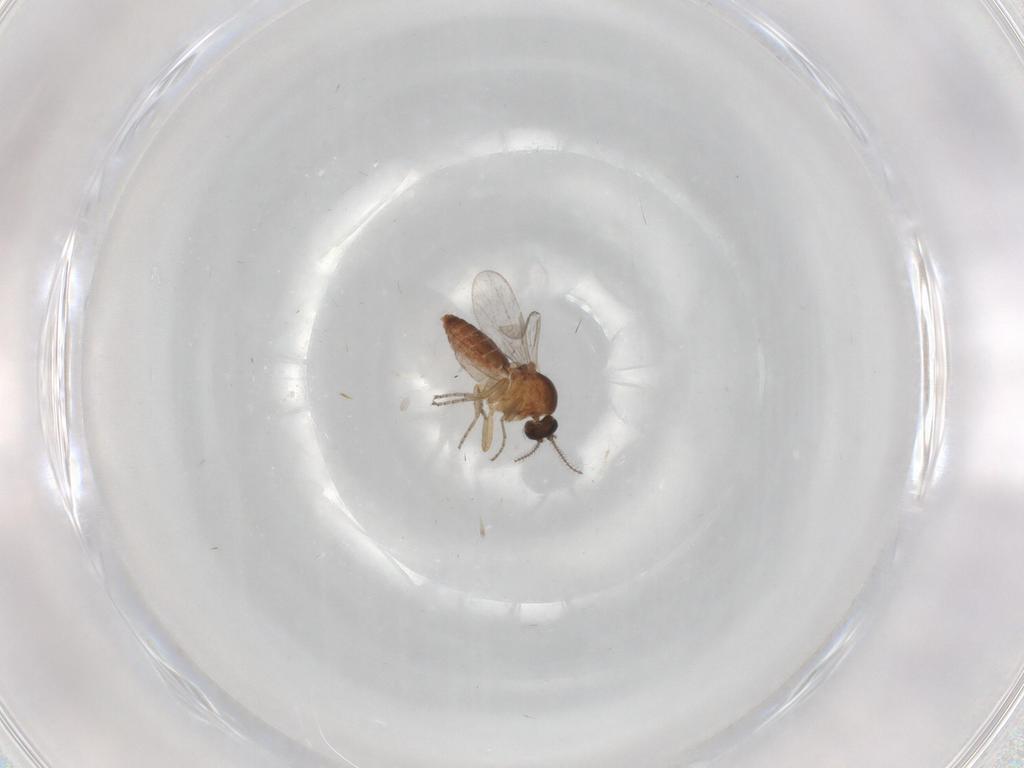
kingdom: Animalia
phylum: Arthropoda
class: Insecta
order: Diptera
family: Ceratopogonidae
